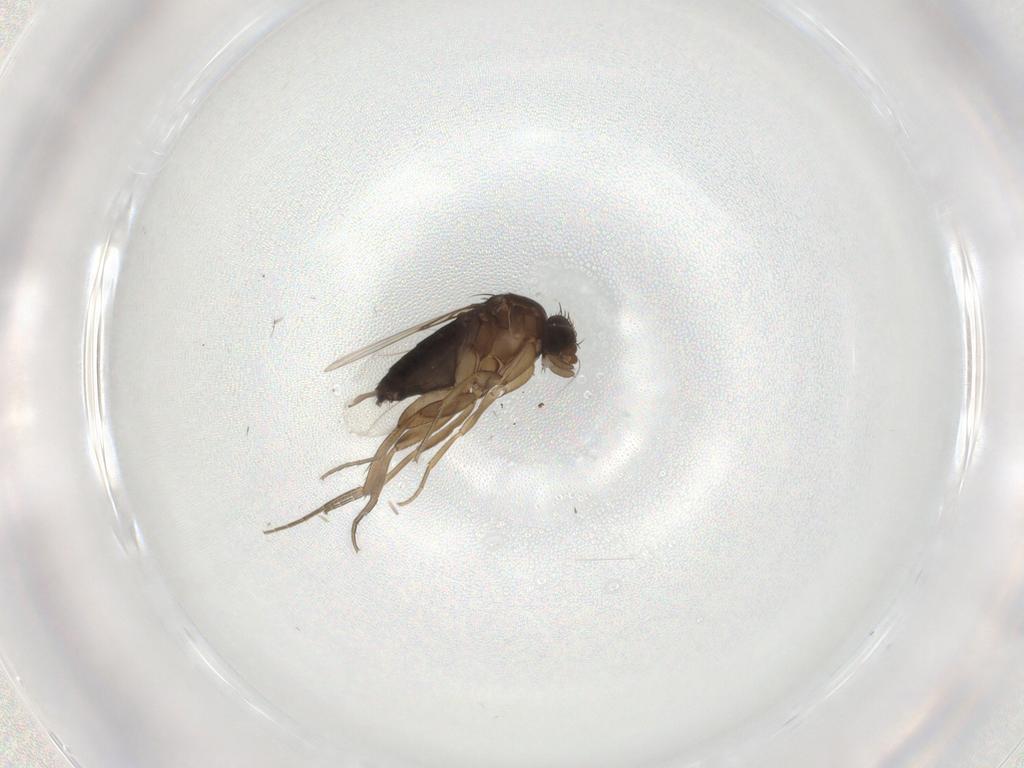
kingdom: Animalia
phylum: Arthropoda
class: Insecta
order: Diptera
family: Phoridae
